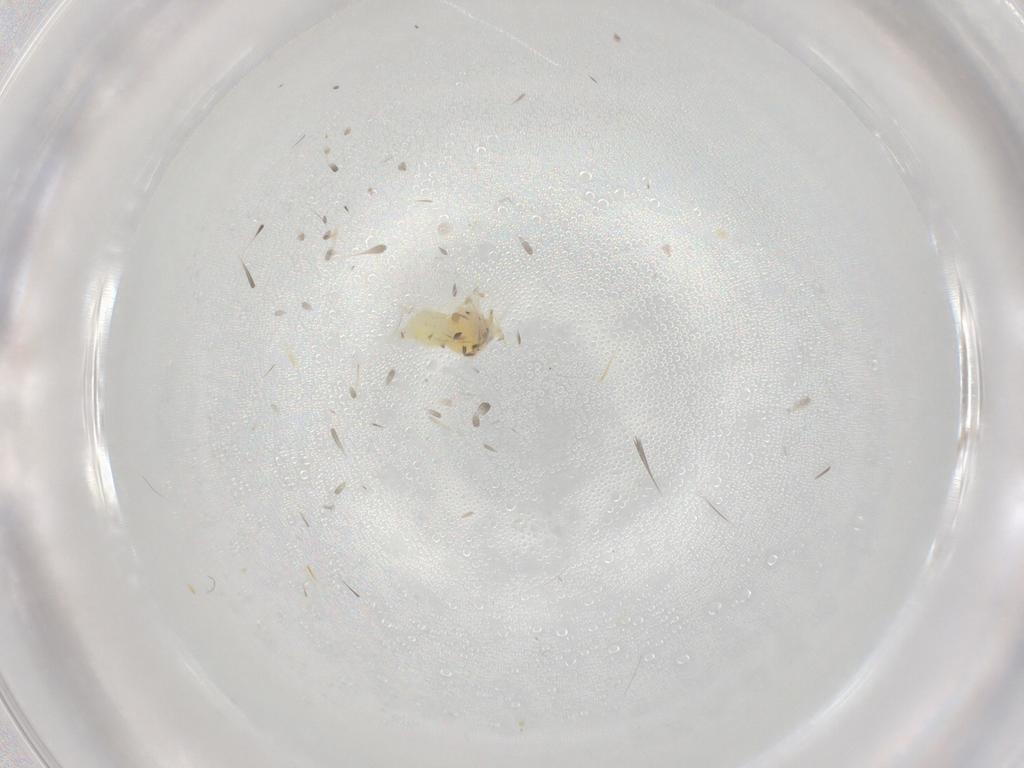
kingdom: Animalia
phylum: Arthropoda
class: Insecta
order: Hemiptera
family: Aleyrodidae
